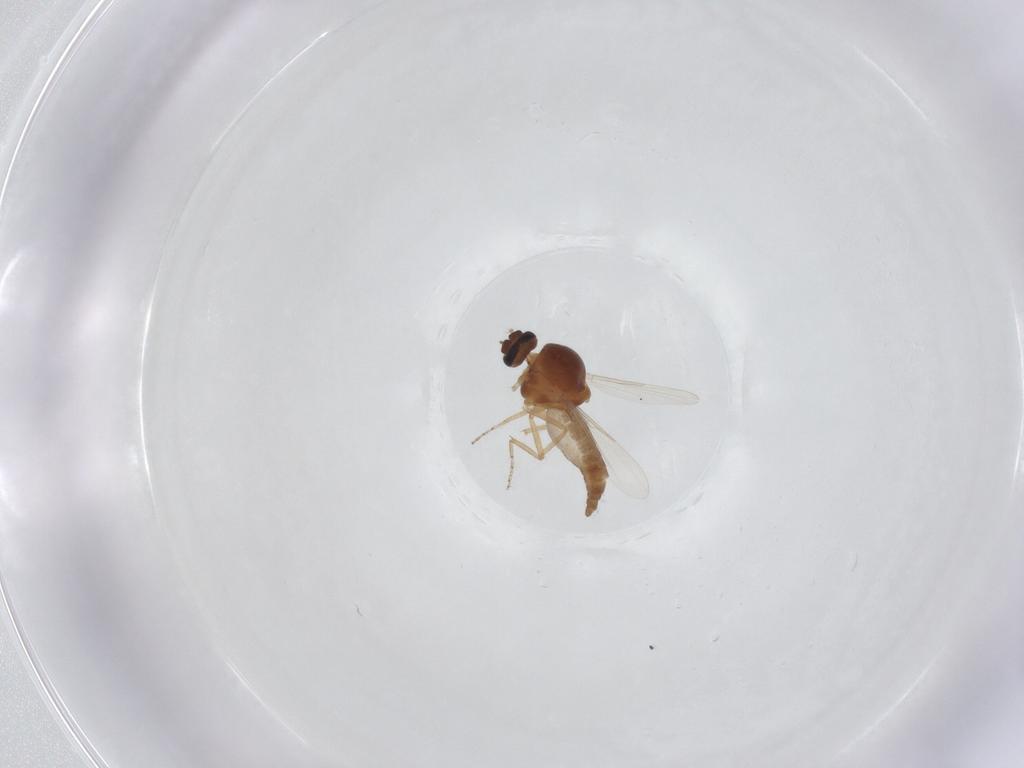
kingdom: Animalia
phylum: Arthropoda
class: Insecta
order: Diptera
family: Ceratopogonidae
